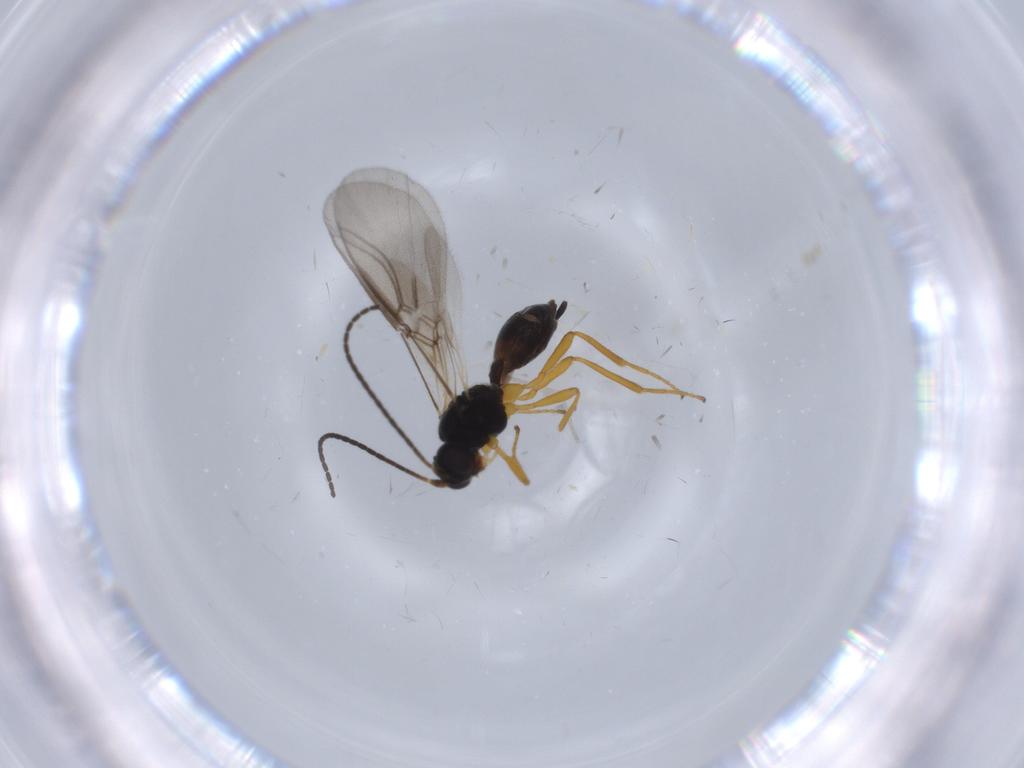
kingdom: Animalia
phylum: Arthropoda
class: Insecta
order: Hymenoptera
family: Braconidae
